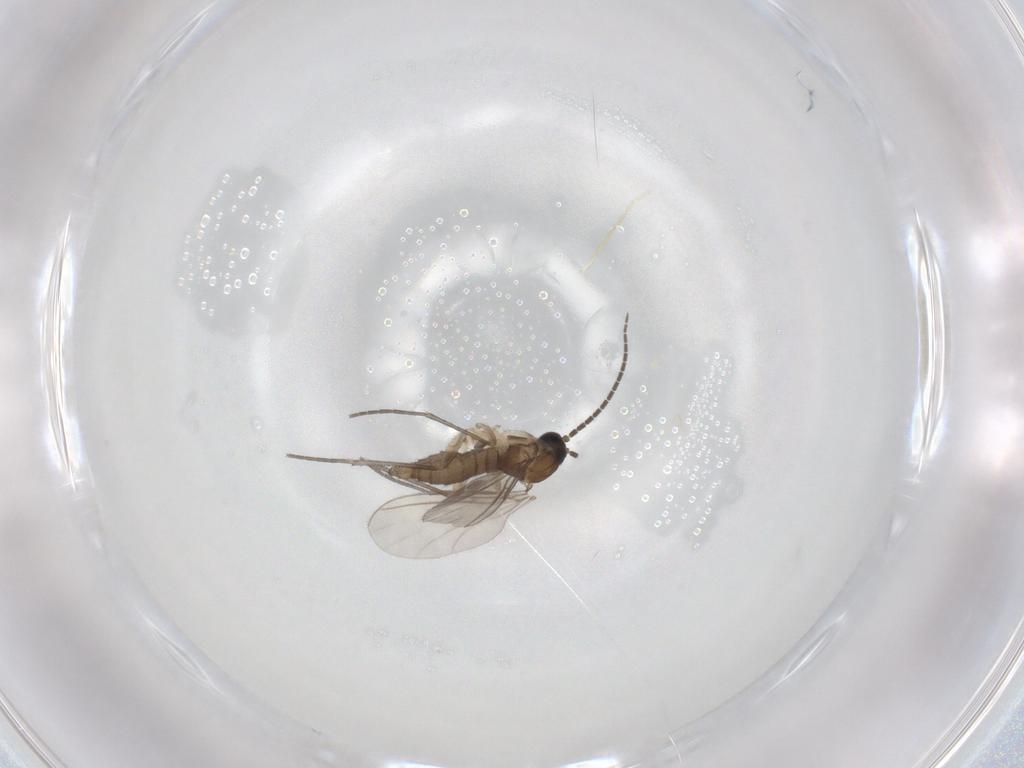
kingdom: Animalia
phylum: Arthropoda
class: Insecta
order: Diptera
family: Sciaridae
